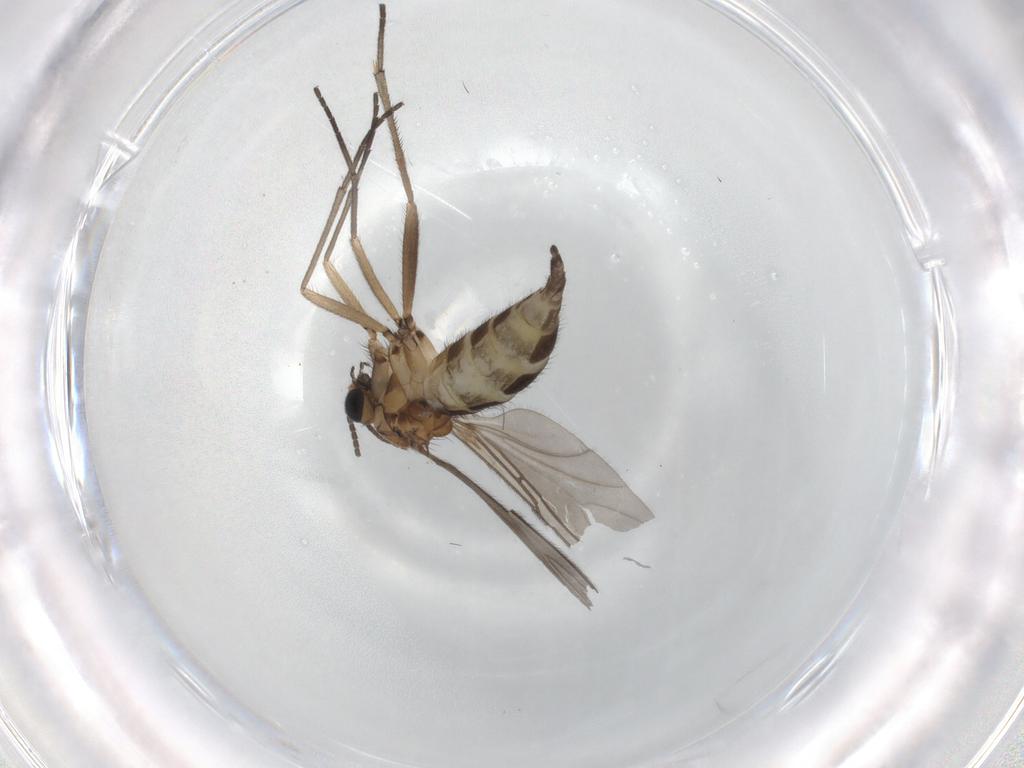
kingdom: Animalia
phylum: Arthropoda
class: Insecta
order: Diptera
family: Sciaridae
